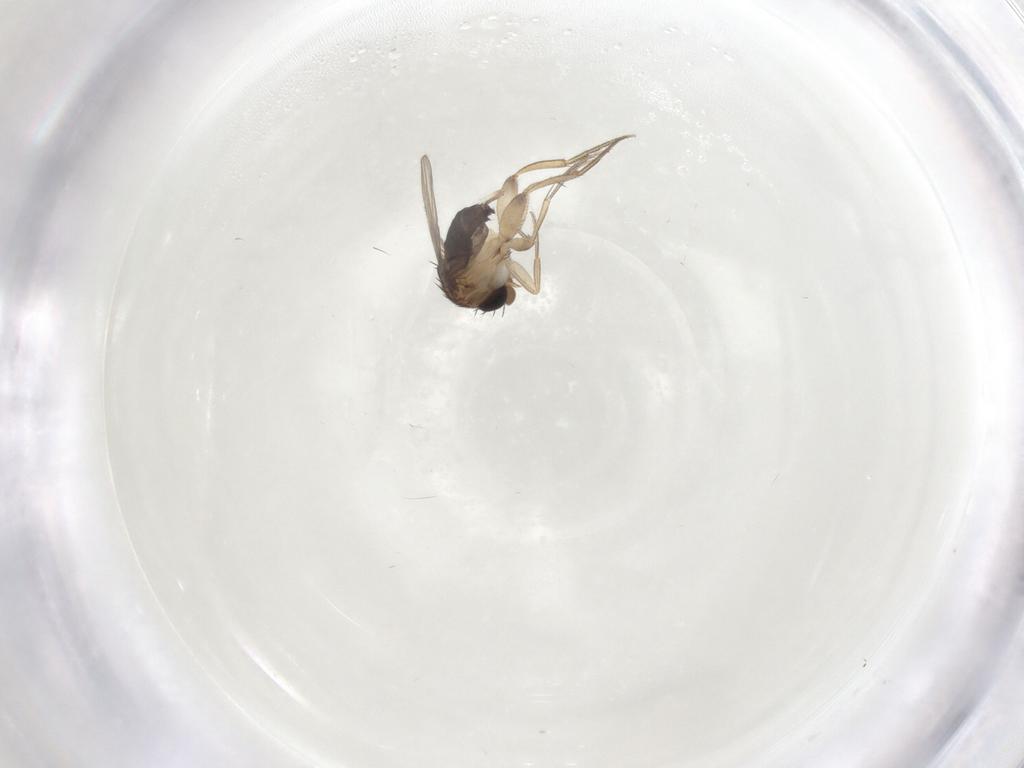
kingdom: Animalia
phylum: Arthropoda
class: Insecta
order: Diptera
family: Phoridae
